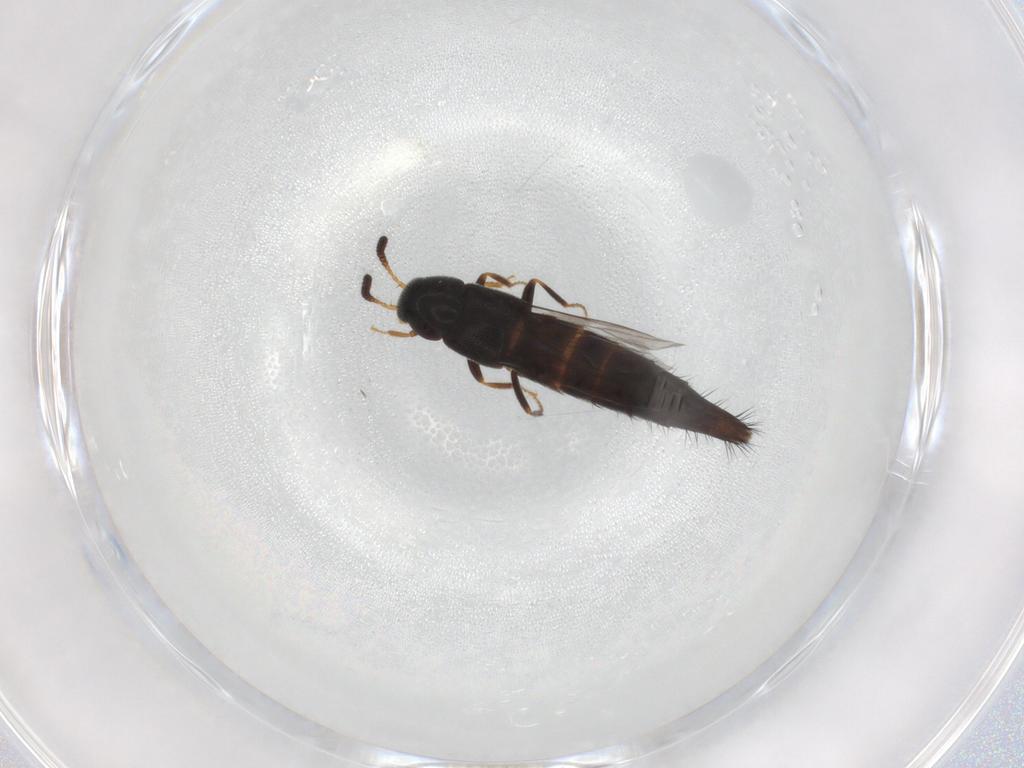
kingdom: Animalia
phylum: Arthropoda
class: Insecta
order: Coleoptera
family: Staphylinidae
